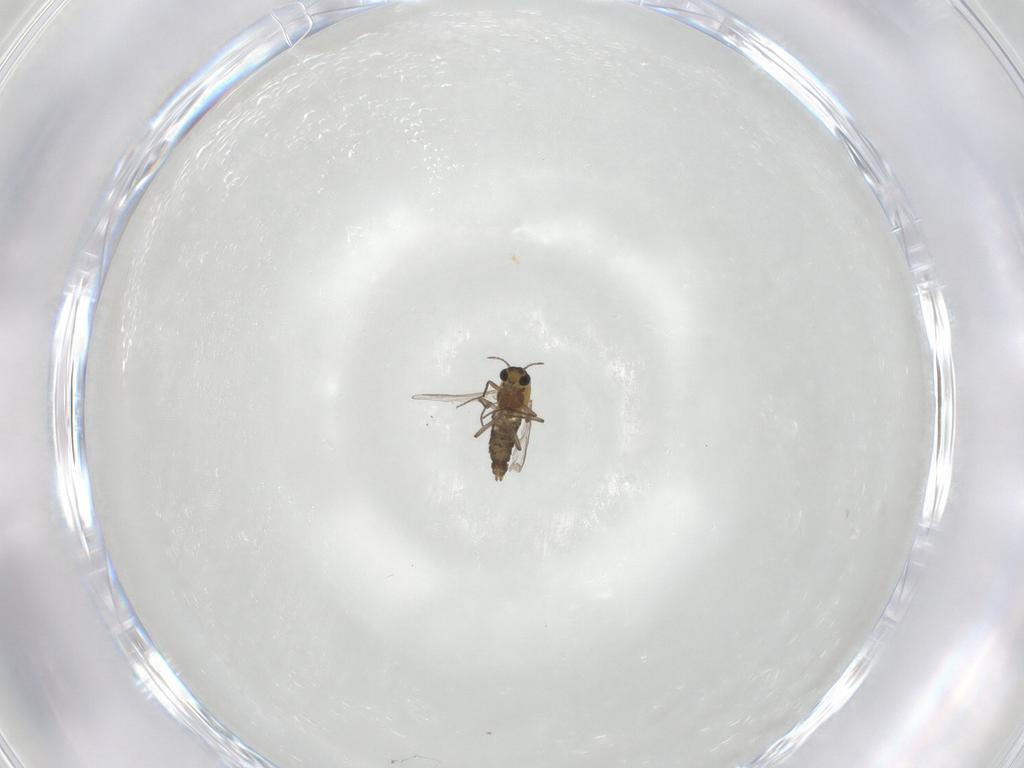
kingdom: Animalia
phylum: Arthropoda
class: Insecta
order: Diptera
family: Chironomidae
